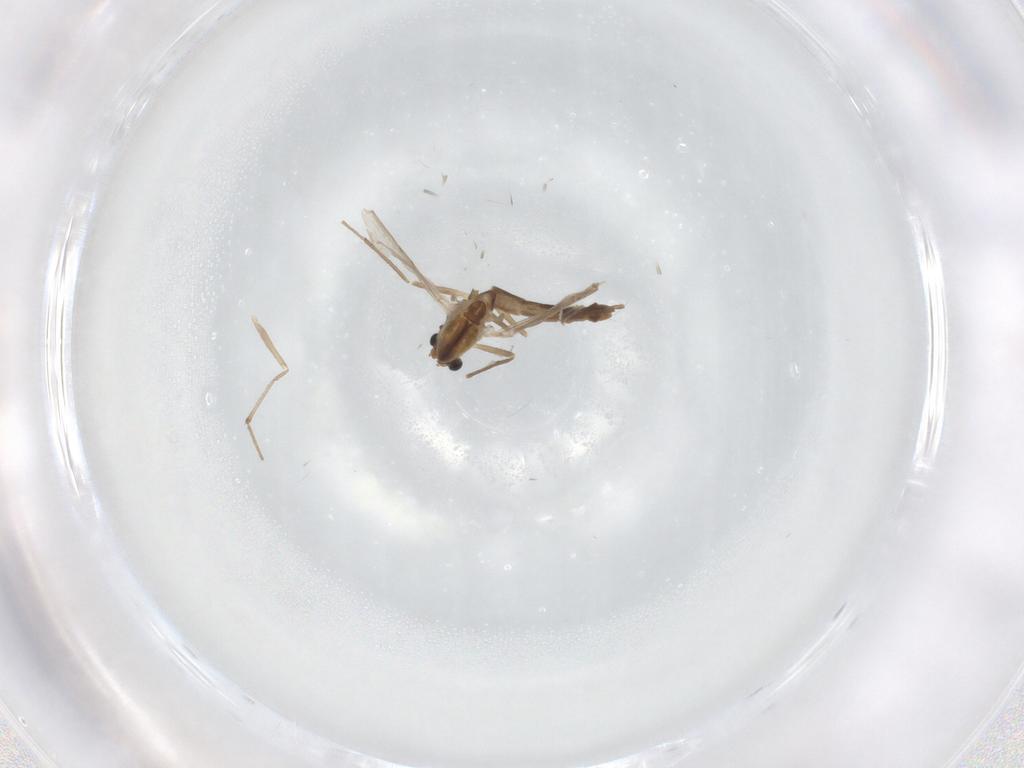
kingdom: Animalia
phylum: Arthropoda
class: Insecta
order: Diptera
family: Chironomidae
